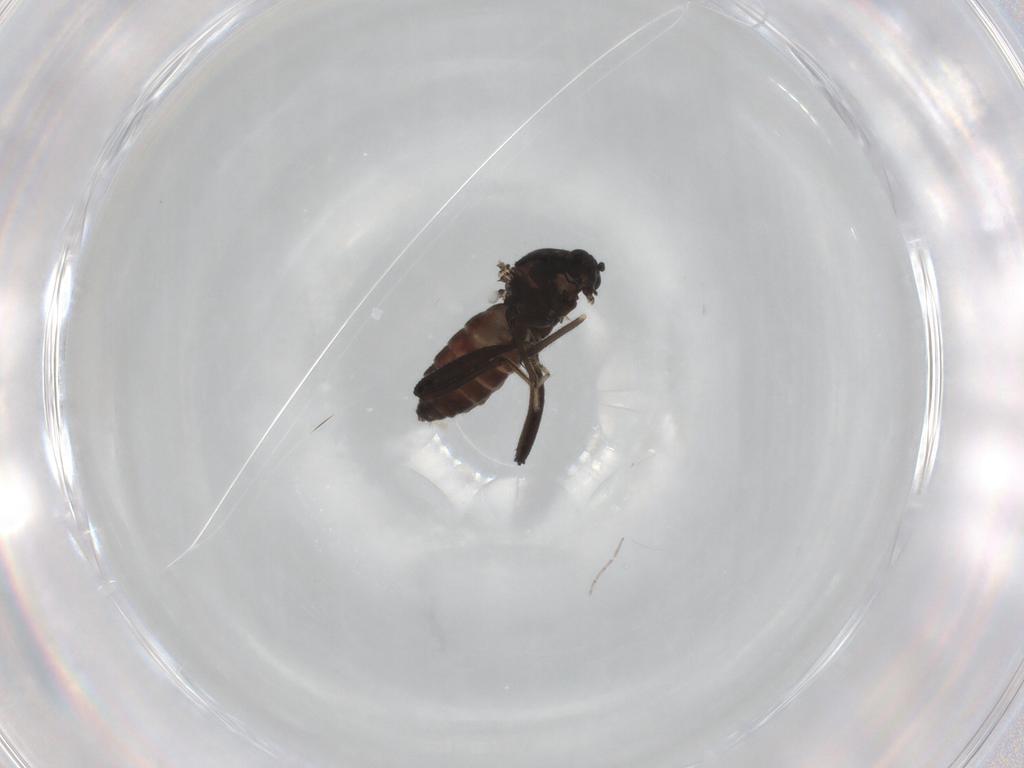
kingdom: Animalia
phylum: Arthropoda
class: Insecta
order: Diptera
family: Ceratopogonidae
